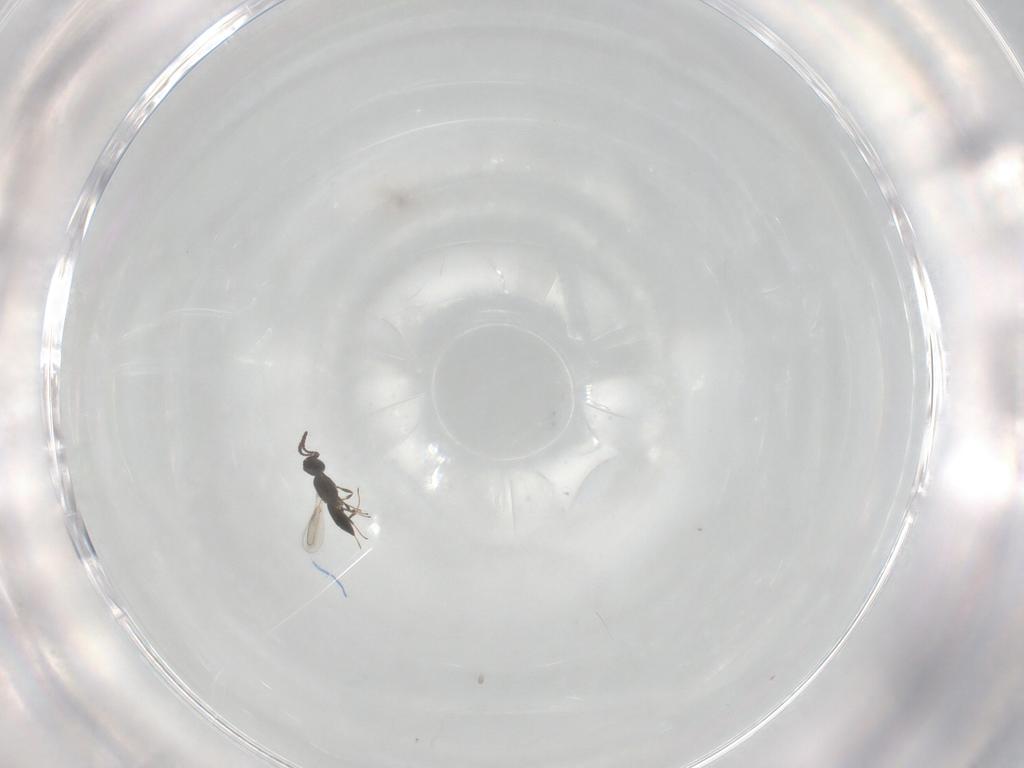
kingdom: Animalia
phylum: Arthropoda
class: Insecta
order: Hymenoptera
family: Scelionidae
